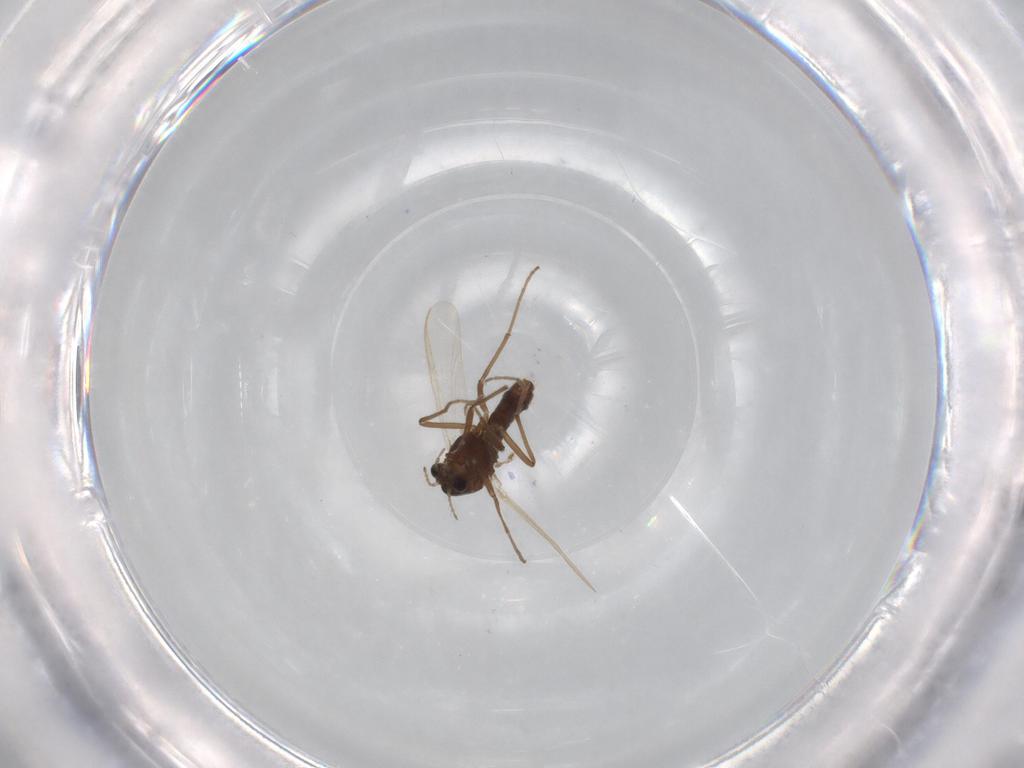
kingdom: Animalia
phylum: Arthropoda
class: Insecta
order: Diptera
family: Chironomidae
